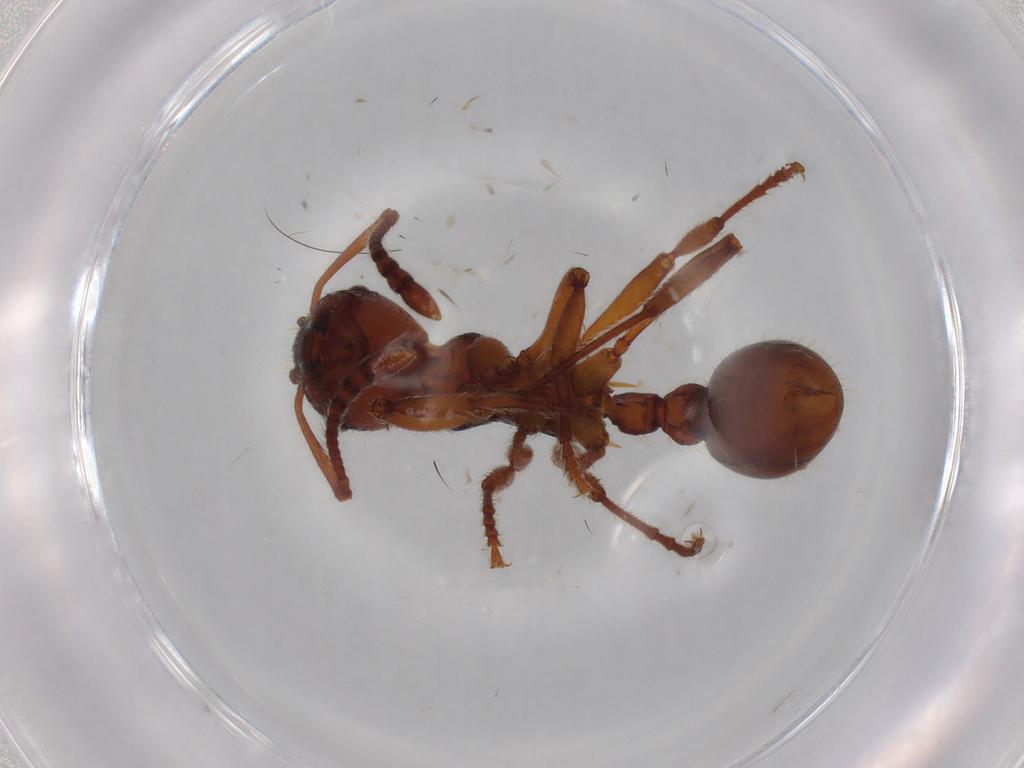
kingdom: Animalia
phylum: Arthropoda
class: Insecta
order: Hymenoptera
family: Formicidae
